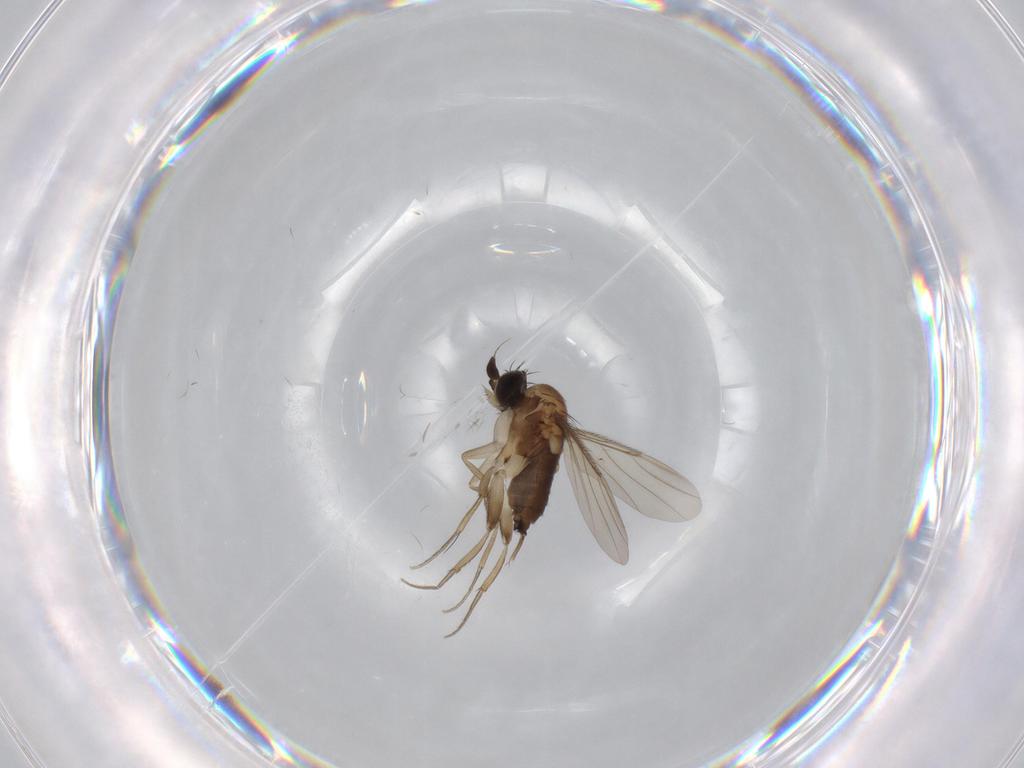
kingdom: Animalia
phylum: Arthropoda
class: Insecta
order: Diptera
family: Phoridae
